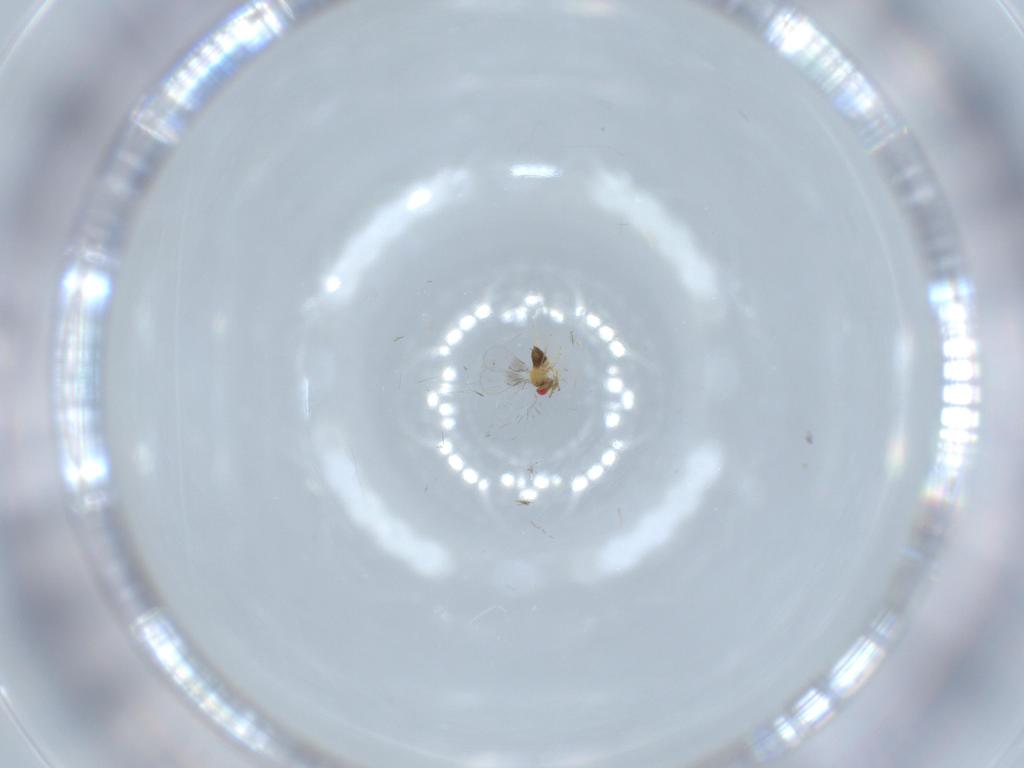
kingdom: Animalia
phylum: Arthropoda
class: Insecta
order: Hymenoptera
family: Trichogrammatidae
